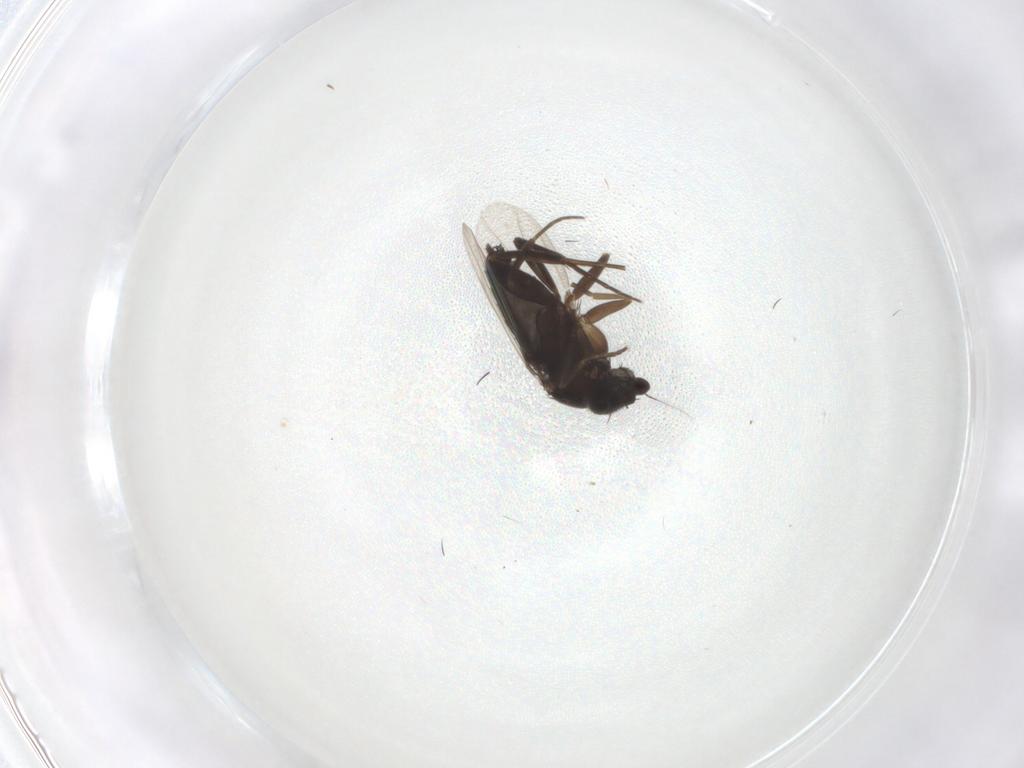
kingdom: Animalia
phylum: Arthropoda
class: Insecta
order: Diptera
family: Phoridae
